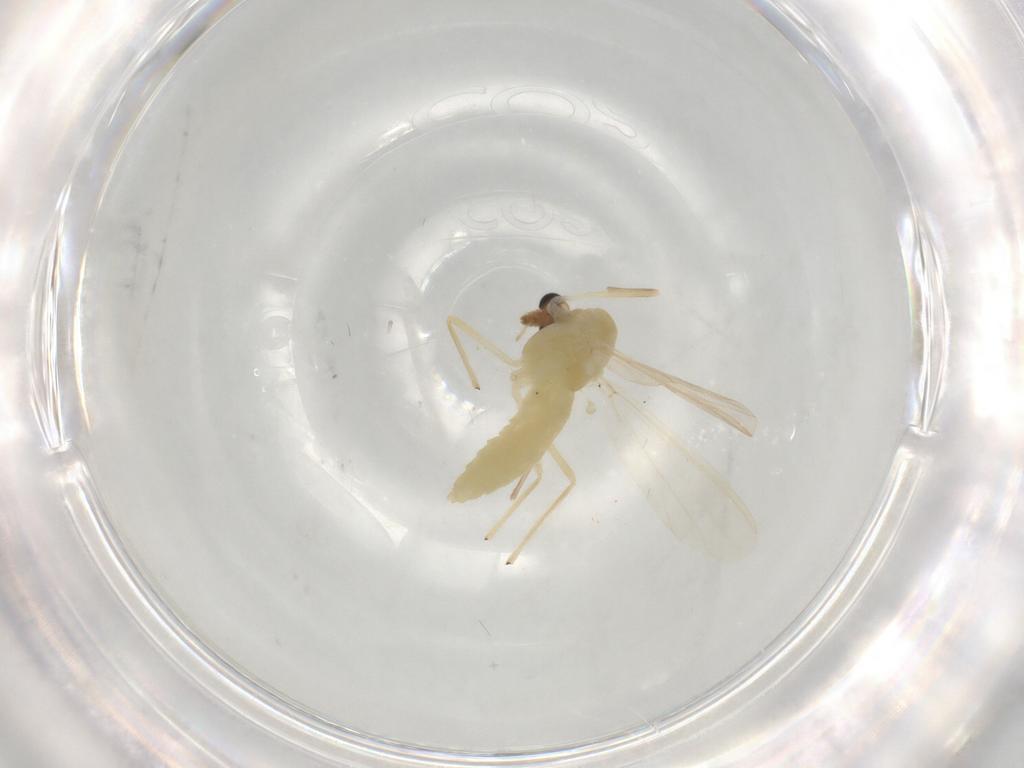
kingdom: Animalia
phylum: Arthropoda
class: Insecta
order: Diptera
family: Chironomidae
